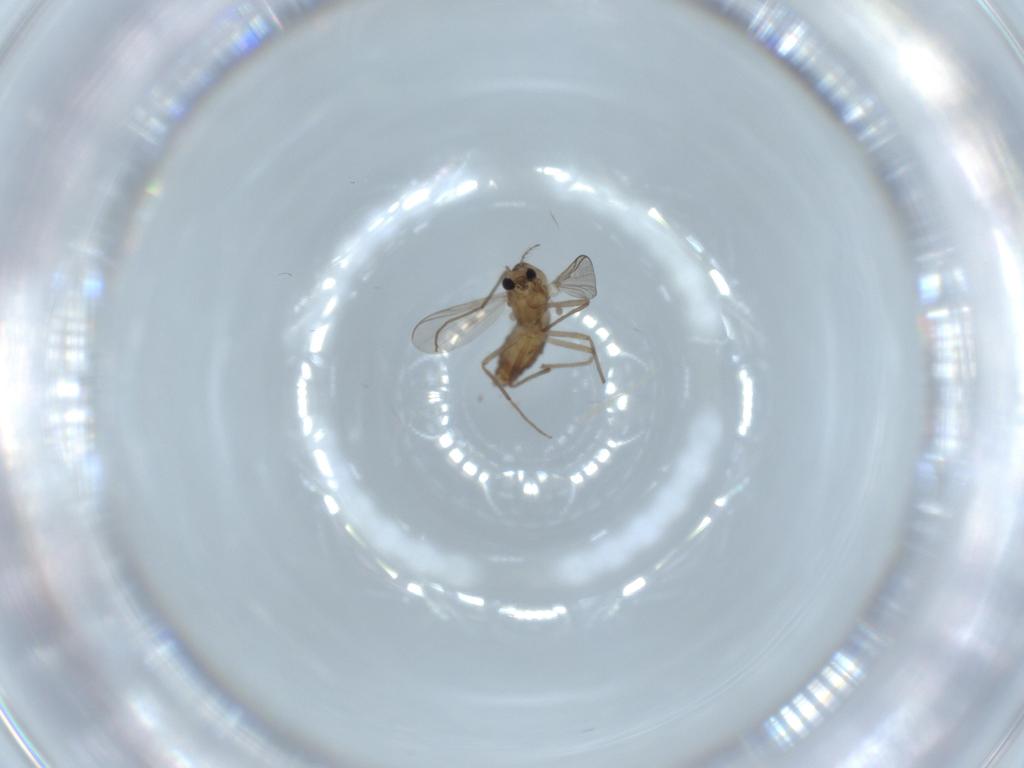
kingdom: Animalia
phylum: Arthropoda
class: Insecta
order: Diptera
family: Chironomidae
